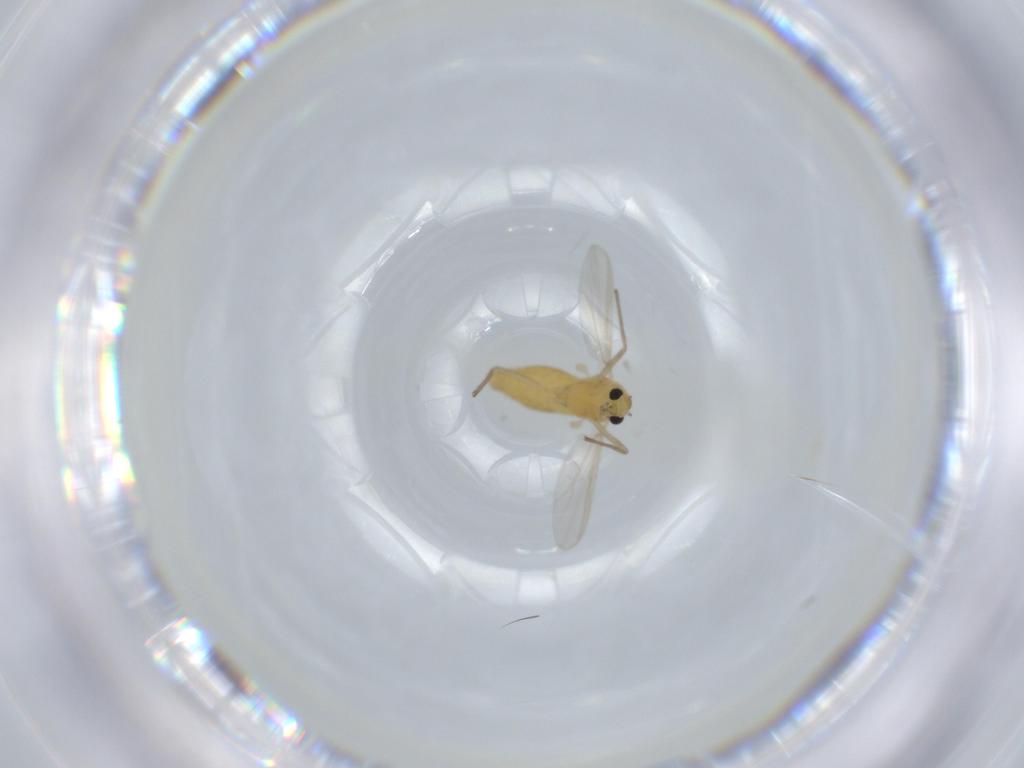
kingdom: Animalia
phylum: Arthropoda
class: Insecta
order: Diptera
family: Chironomidae
